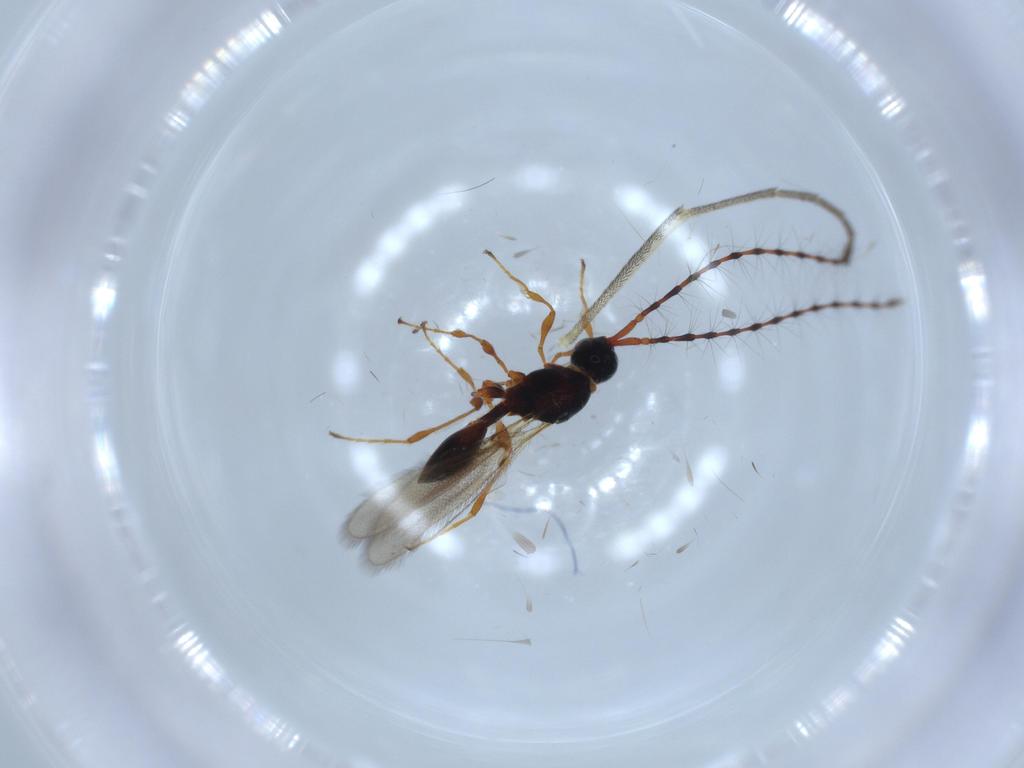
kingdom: Animalia
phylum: Arthropoda
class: Insecta
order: Hymenoptera
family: Diapriidae
